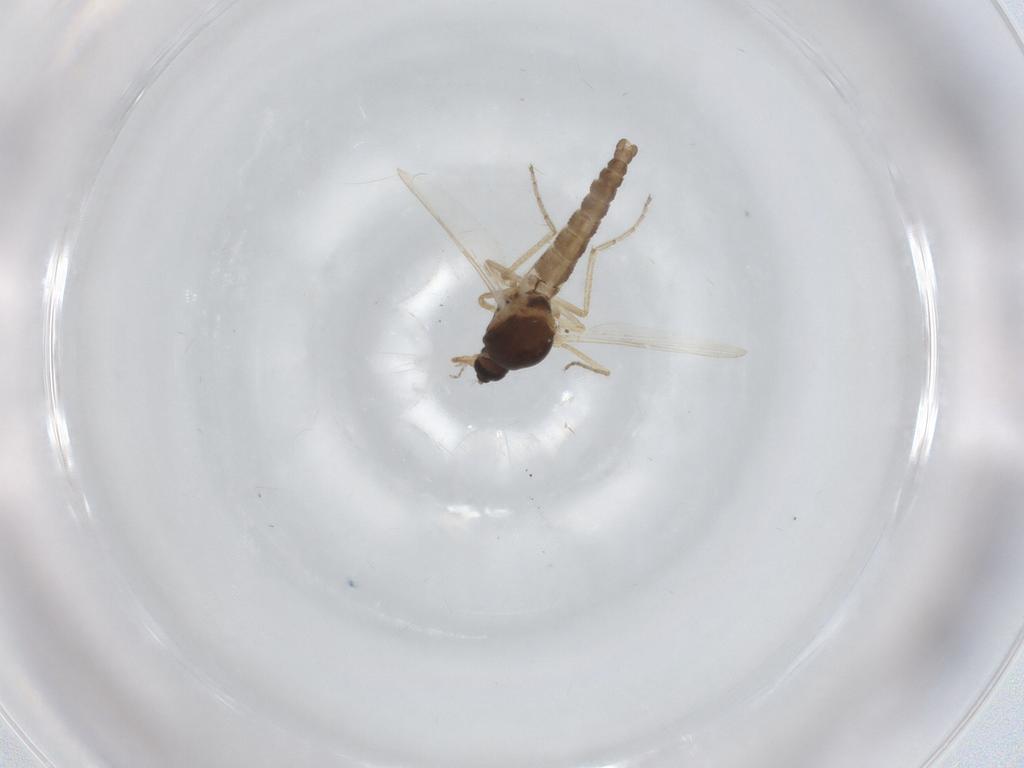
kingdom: Animalia
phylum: Arthropoda
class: Insecta
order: Diptera
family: Ceratopogonidae
